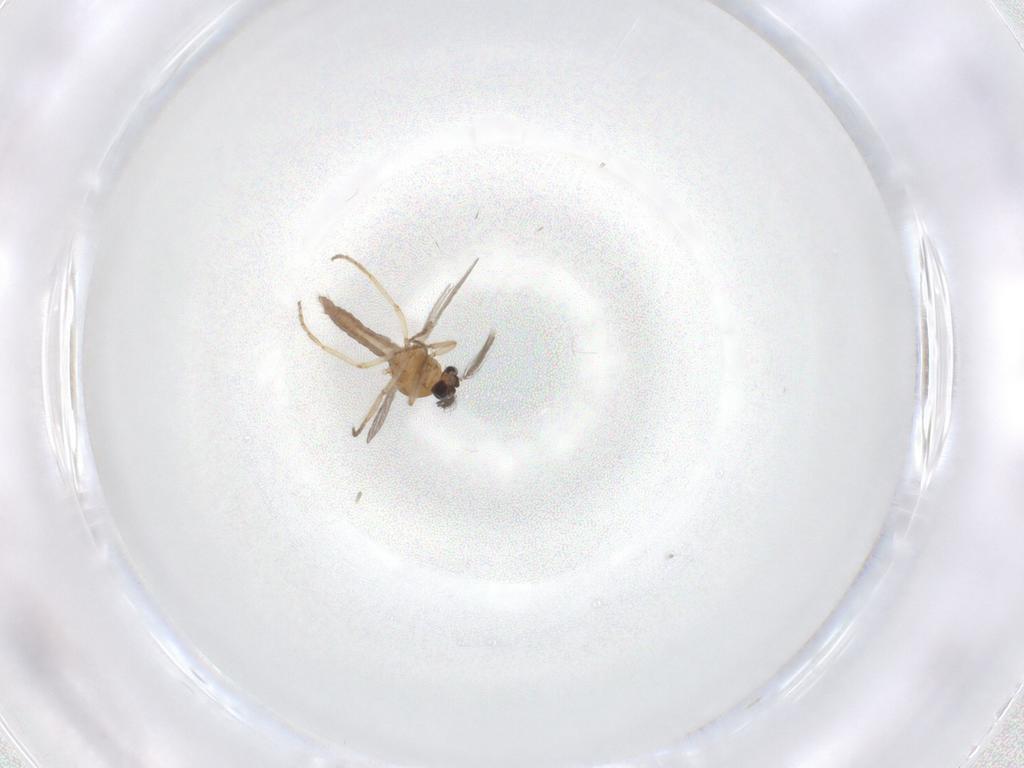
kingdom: Animalia
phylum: Arthropoda
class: Insecta
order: Diptera
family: Ceratopogonidae
